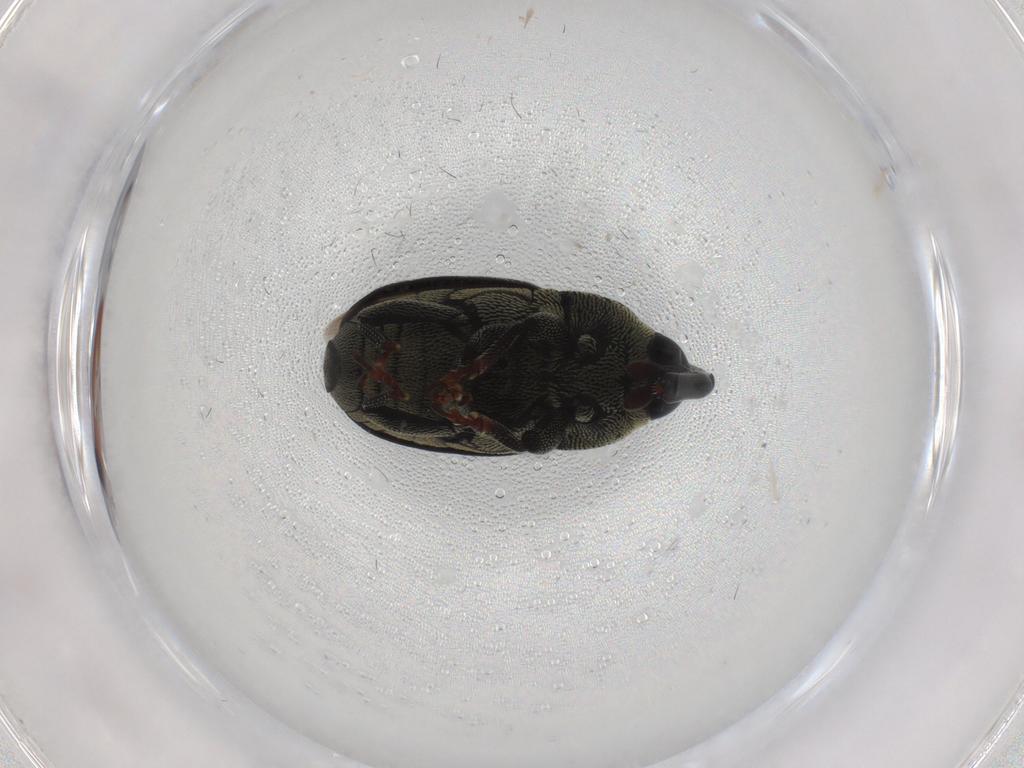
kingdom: Animalia
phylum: Arthropoda
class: Insecta
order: Coleoptera
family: Curculionidae
